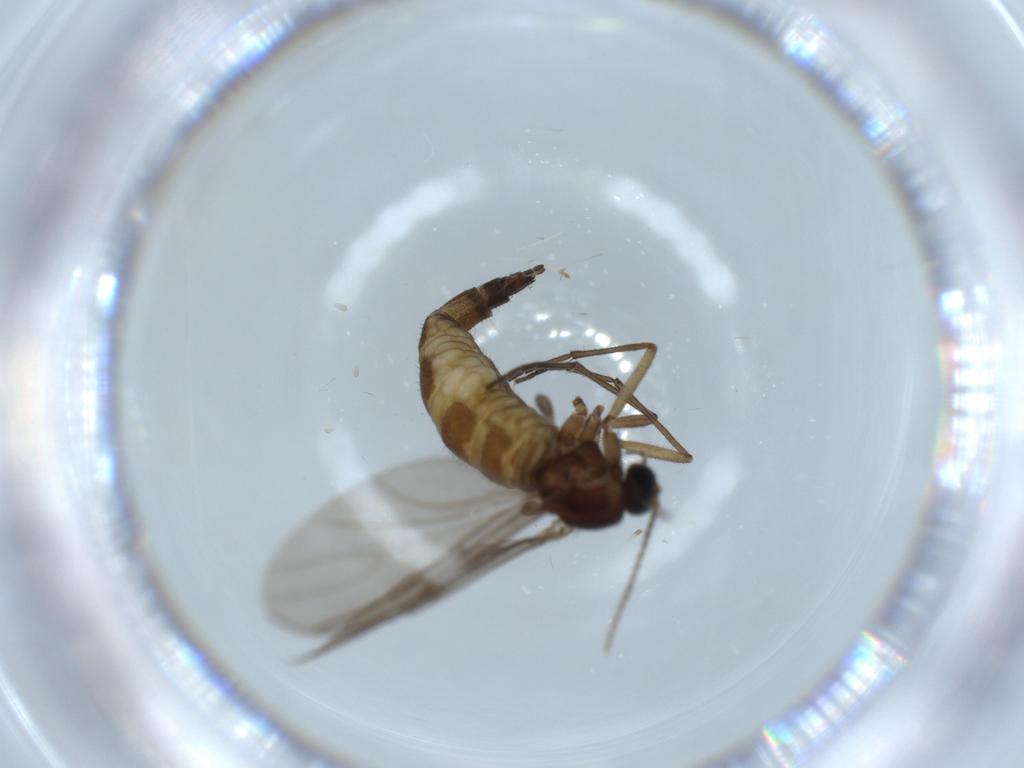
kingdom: Animalia
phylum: Arthropoda
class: Insecta
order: Diptera
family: Sciaridae
